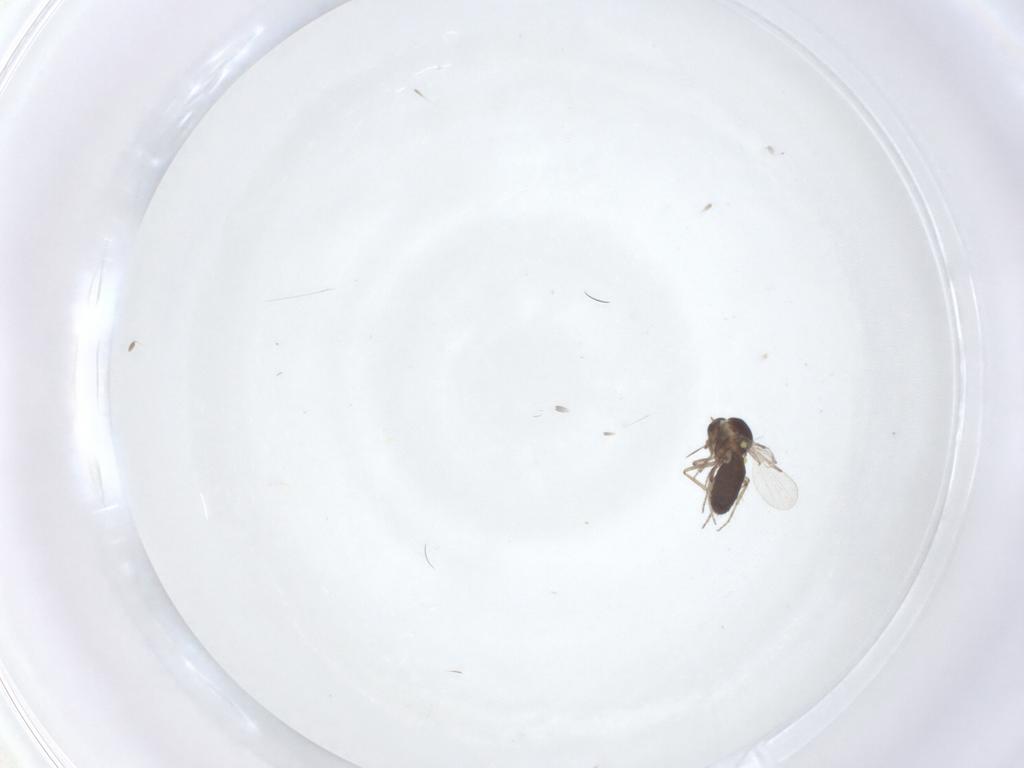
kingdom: Animalia
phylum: Arthropoda
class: Insecta
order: Diptera
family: Ceratopogonidae
